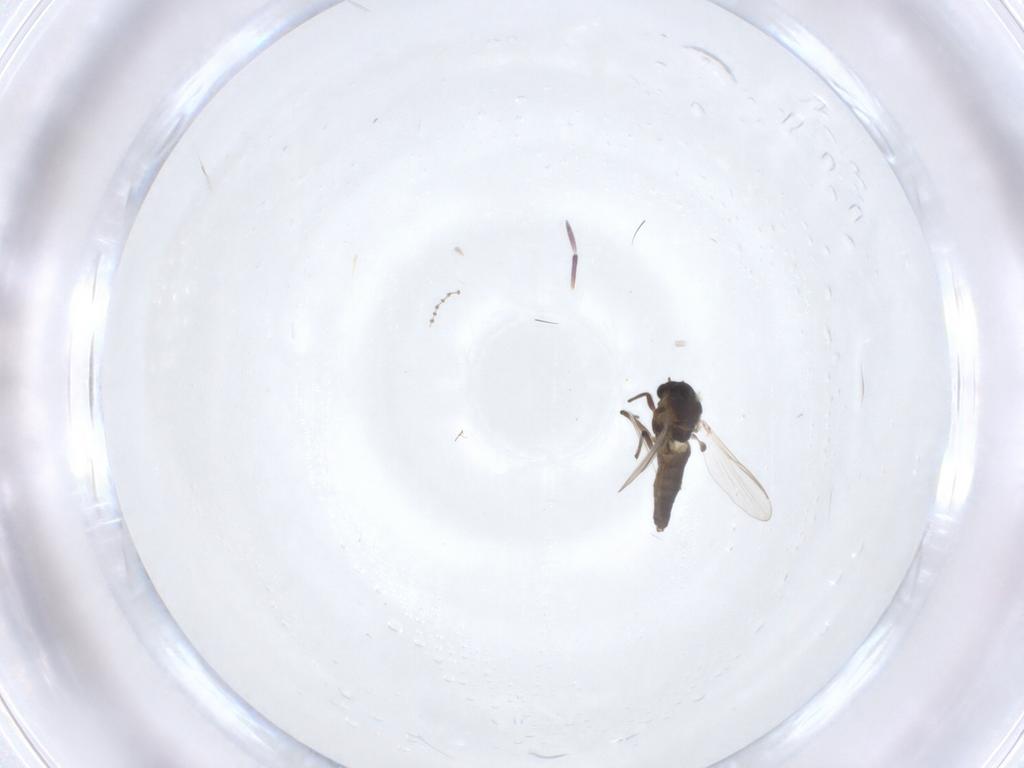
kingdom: Animalia
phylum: Arthropoda
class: Insecta
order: Diptera
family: Chironomidae
